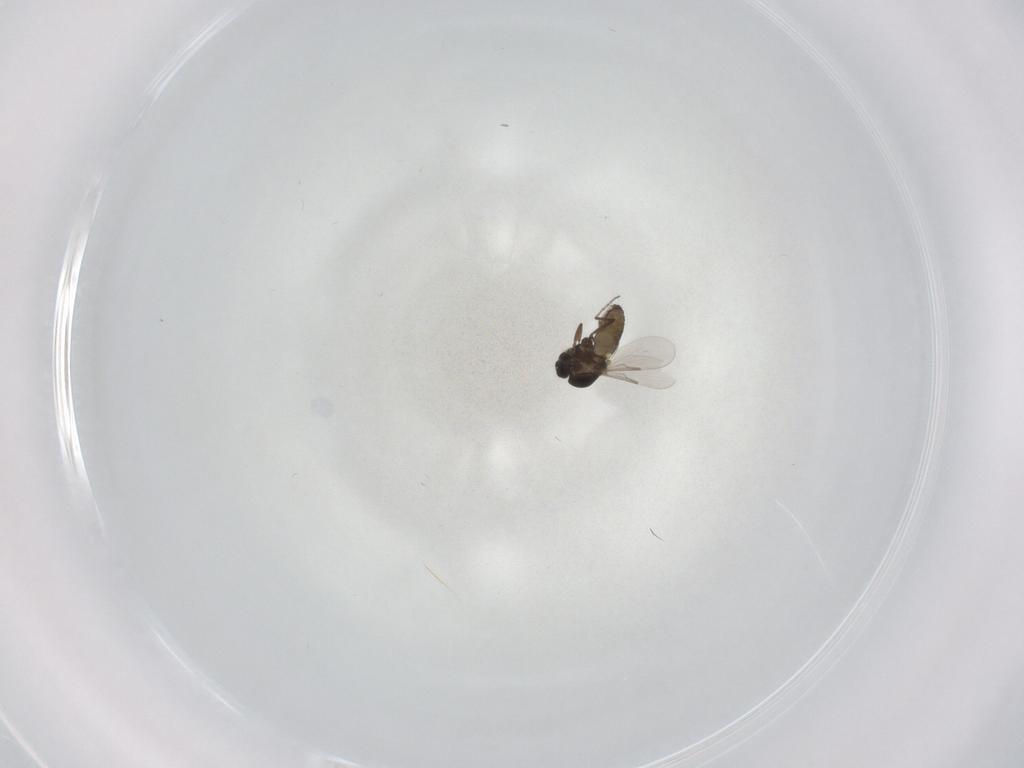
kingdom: Animalia
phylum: Arthropoda
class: Insecta
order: Diptera
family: Ceratopogonidae
